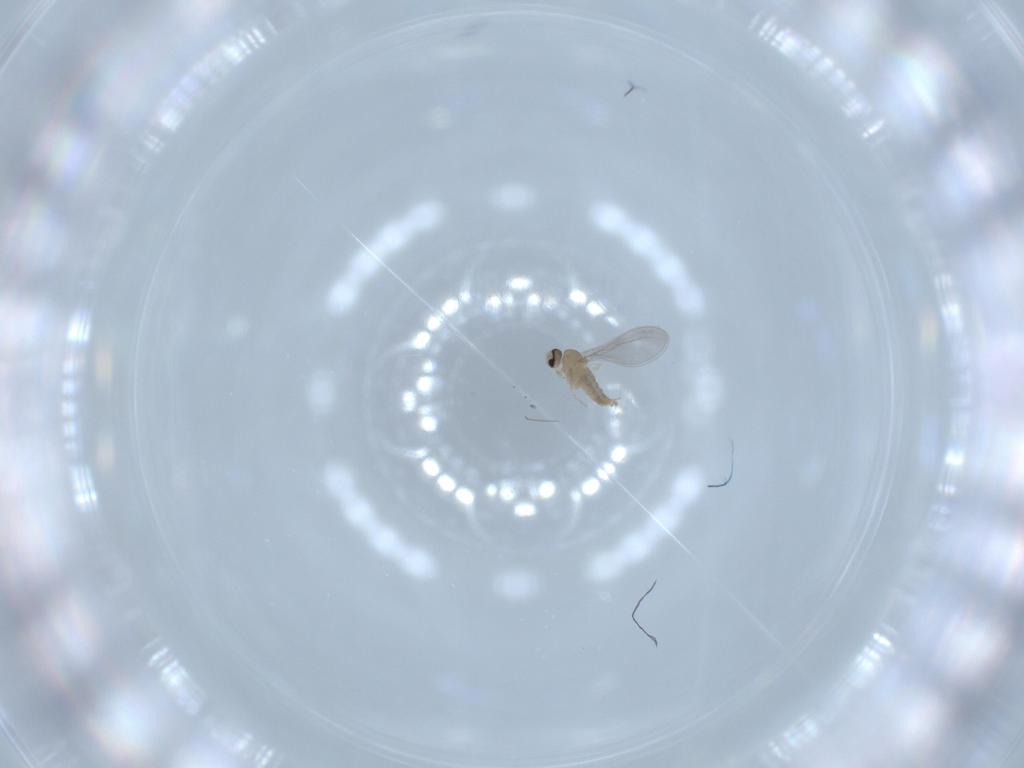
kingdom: Animalia
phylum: Arthropoda
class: Insecta
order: Diptera
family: Cecidomyiidae
